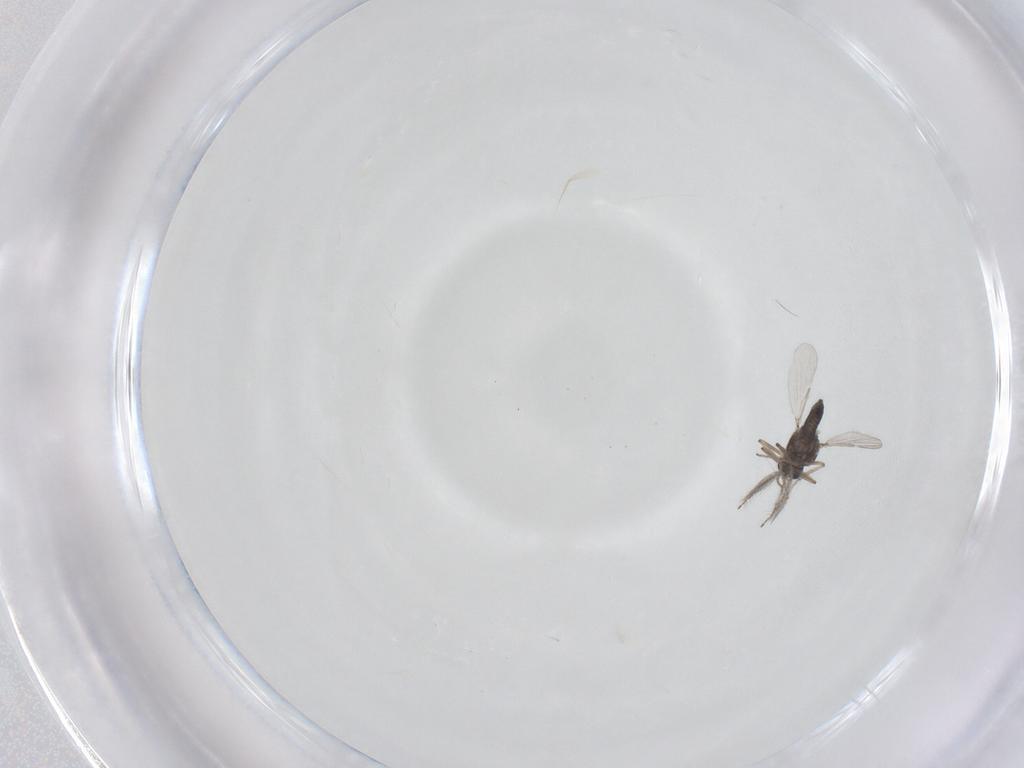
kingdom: Animalia
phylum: Arthropoda
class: Insecta
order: Diptera
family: Ceratopogonidae
